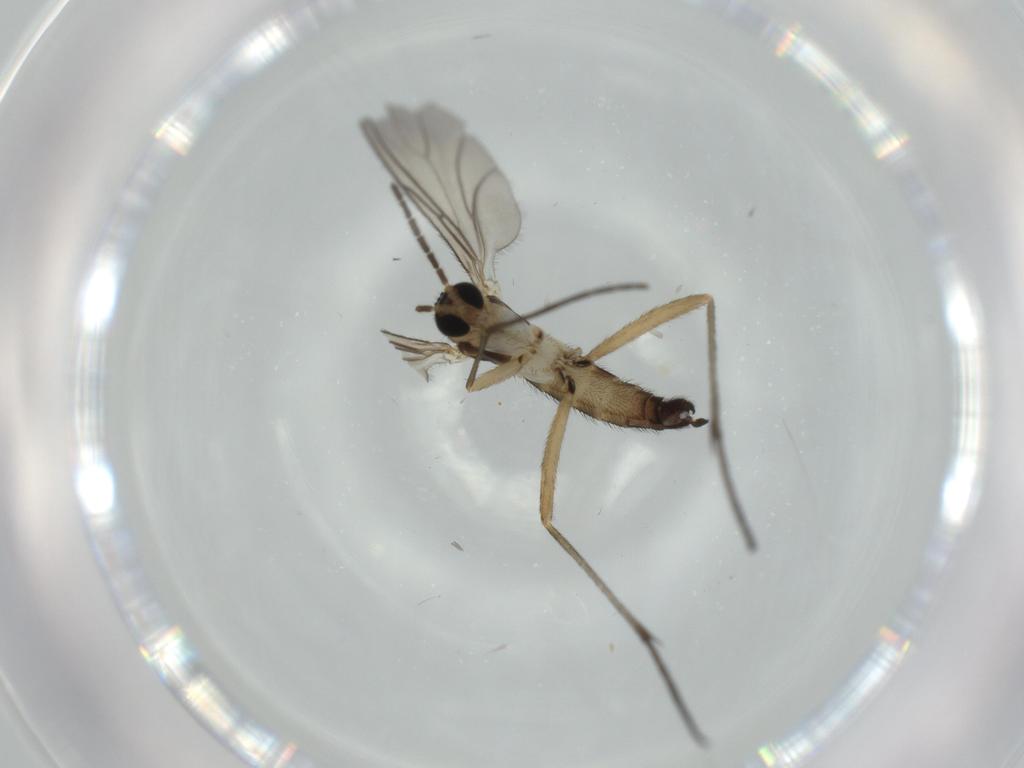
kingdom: Animalia
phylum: Arthropoda
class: Insecta
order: Diptera
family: Sciaridae
